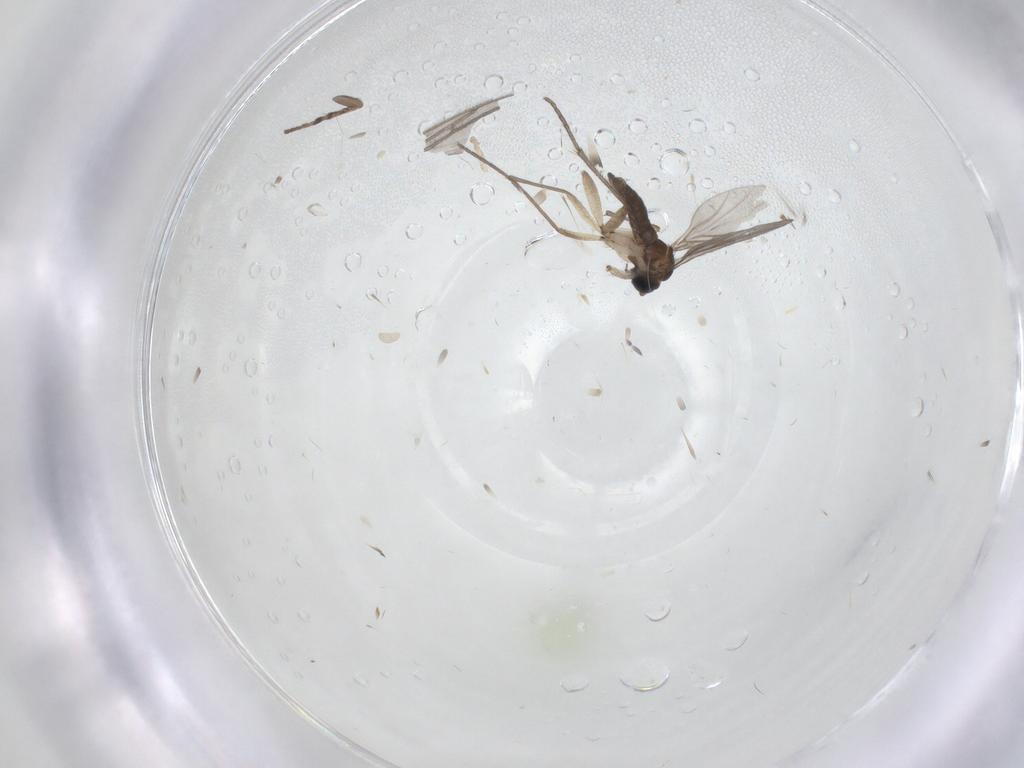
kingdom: Animalia
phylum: Arthropoda
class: Insecta
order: Diptera
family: Sciaridae
